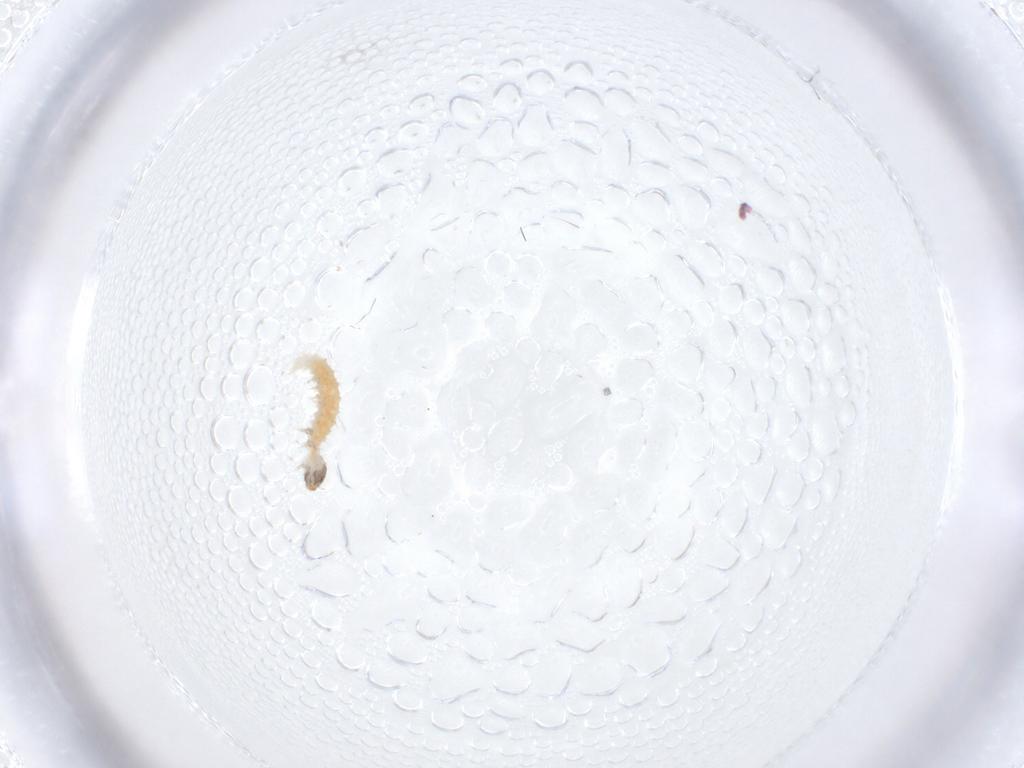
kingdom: Animalia
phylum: Arthropoda
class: Insecta
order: Lepidoptera
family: Crambidae
